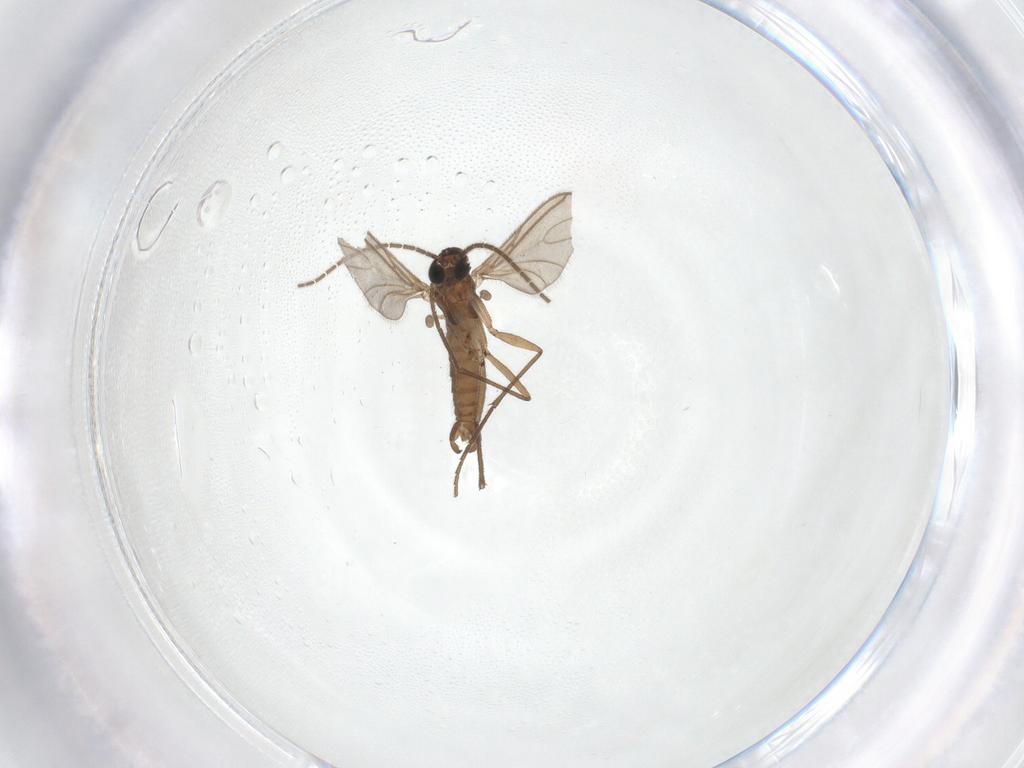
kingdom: Animalia
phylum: Arthropoda
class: Insecta
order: Diptera
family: Sciaridae
